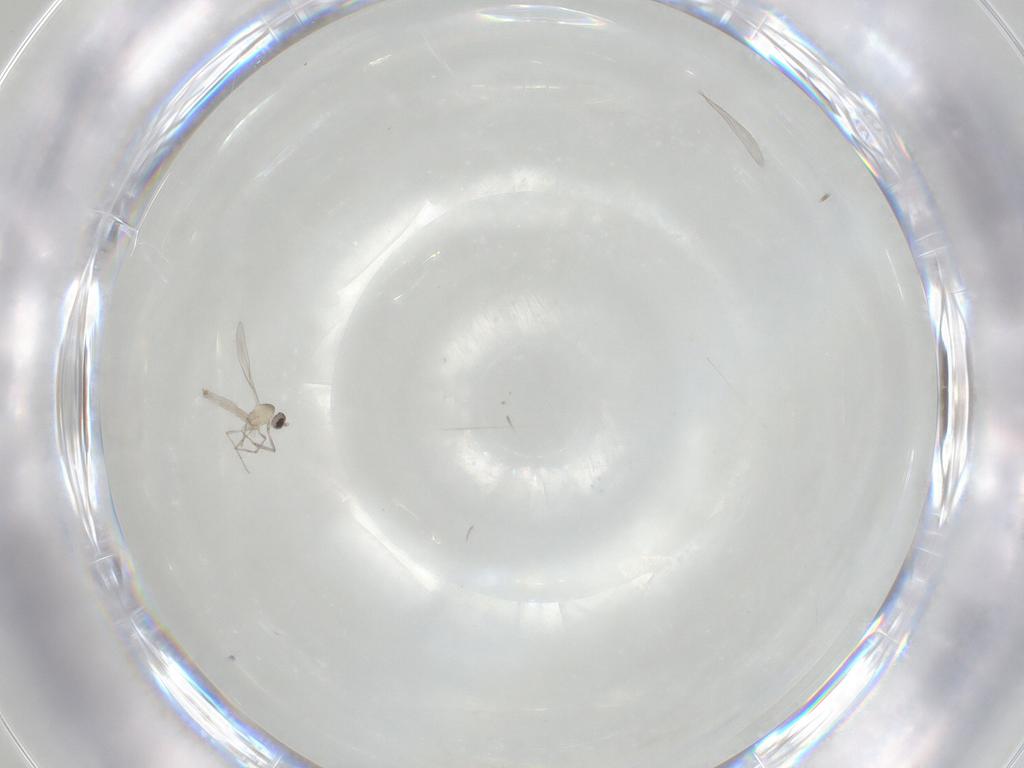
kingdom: Animalia
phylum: Arthropoda
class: Insecta
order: Diptera
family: Cecidomyiidae
